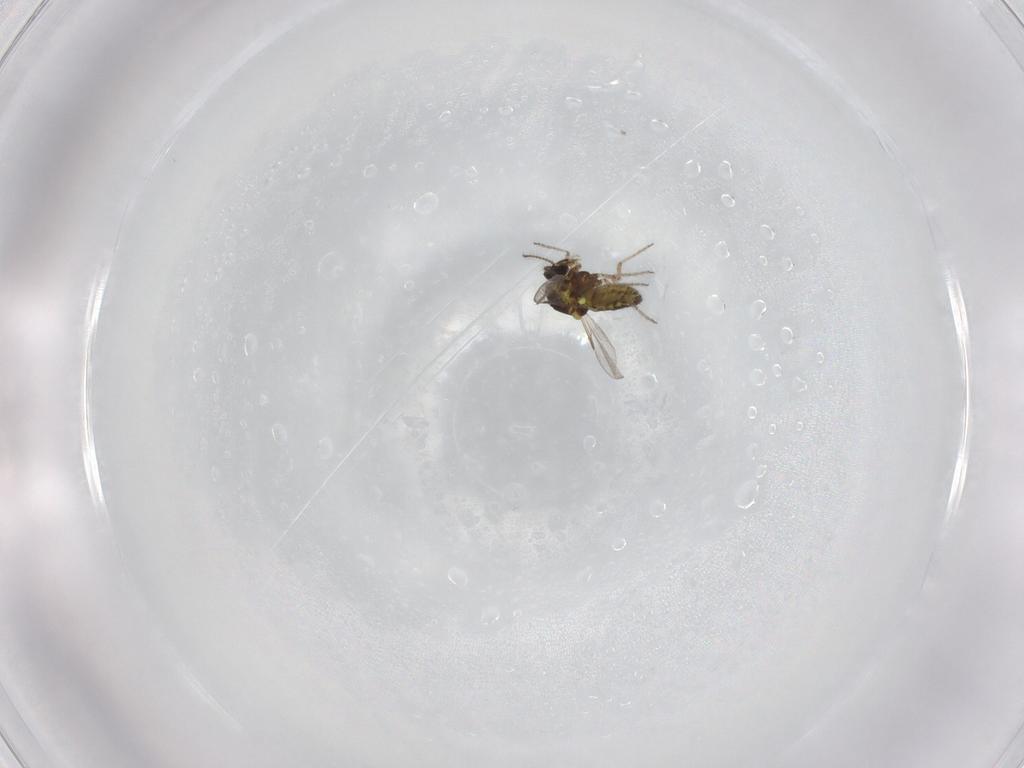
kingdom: Animalia
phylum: Arthropoda
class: Insecta
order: Diptera
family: Ceratopogonidae
